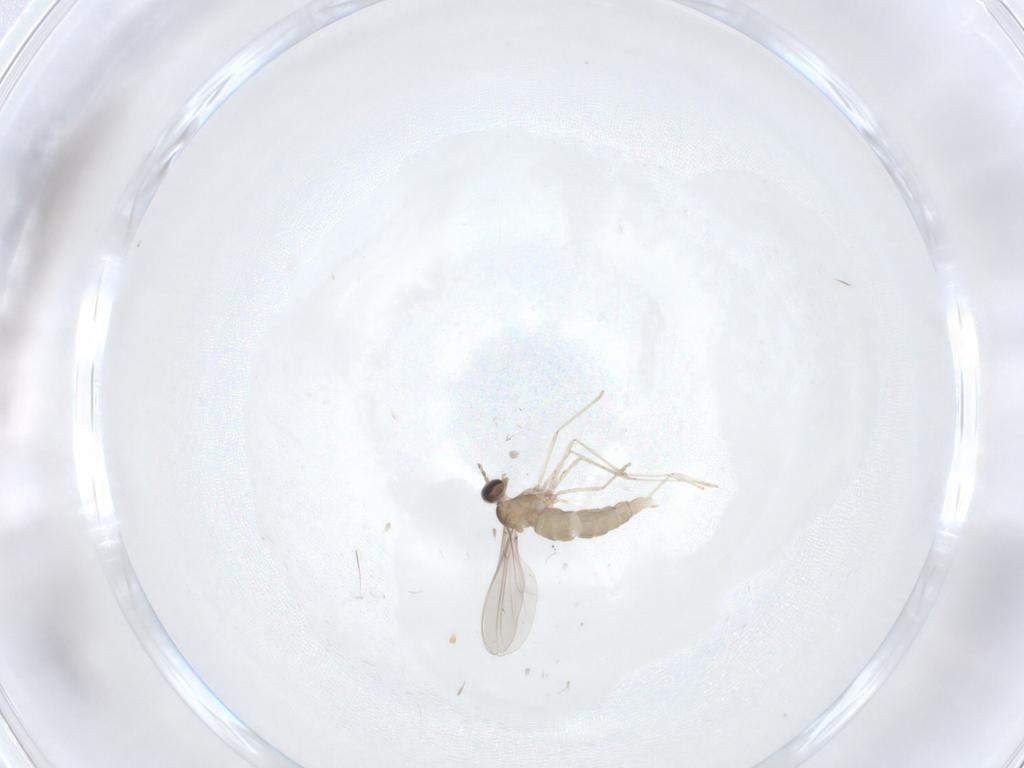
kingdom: Animalia
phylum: Arthropoda
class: Insecta
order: Diptera
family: Cecidomyiidae
